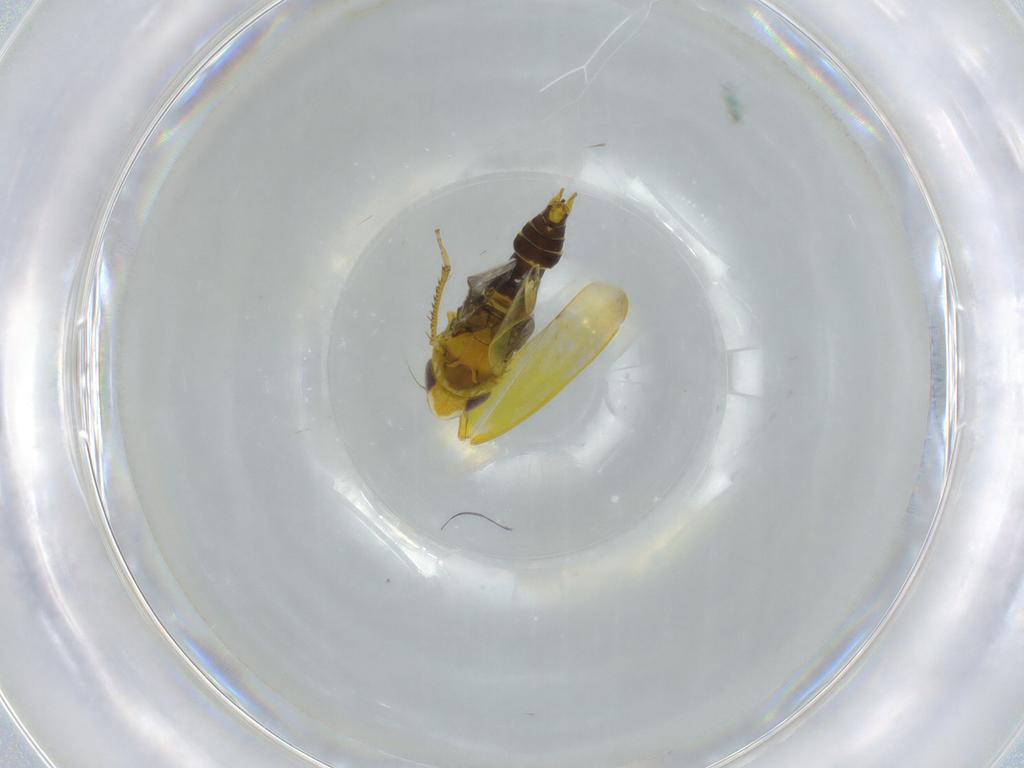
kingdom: Animalia
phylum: Arthropoda
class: Insecta
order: Hemiptera
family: Cicadellidae
